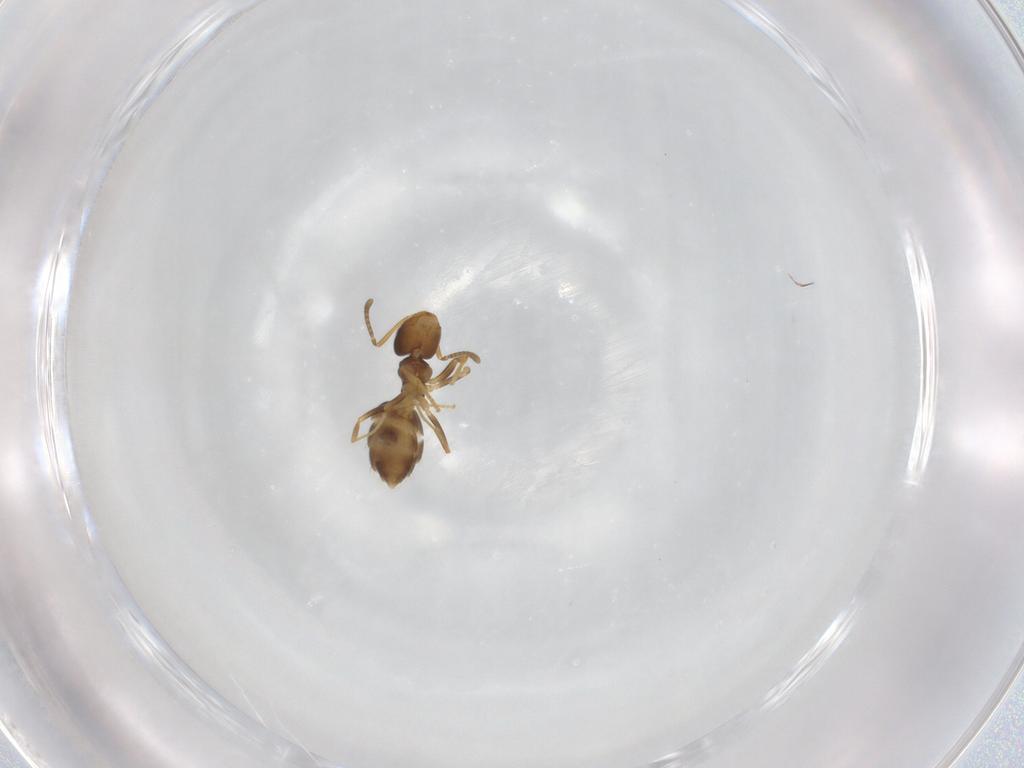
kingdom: Animalia
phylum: Arthropoda
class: Insecta
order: Hymenoptera
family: Formicidae
